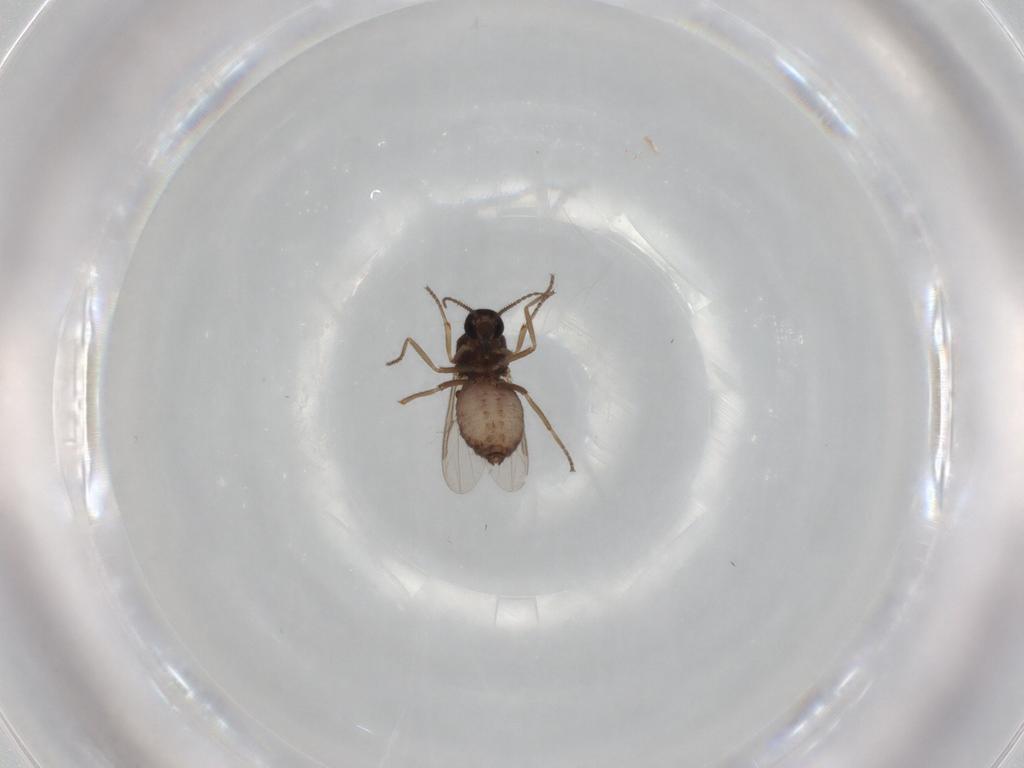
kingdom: Animalia
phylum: Arthropoda
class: Insecta
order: Diptera
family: Ceratopogonidae
